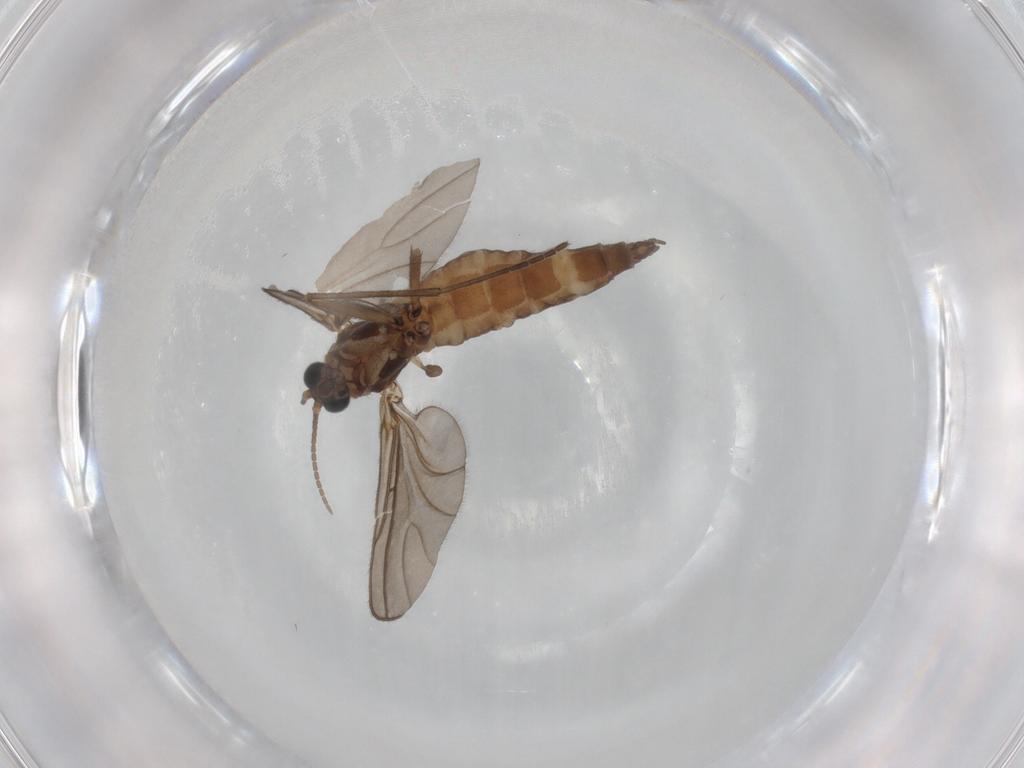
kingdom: Animalia
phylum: Arthropoda
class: Insecta
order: Diptera
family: Sciaridae
